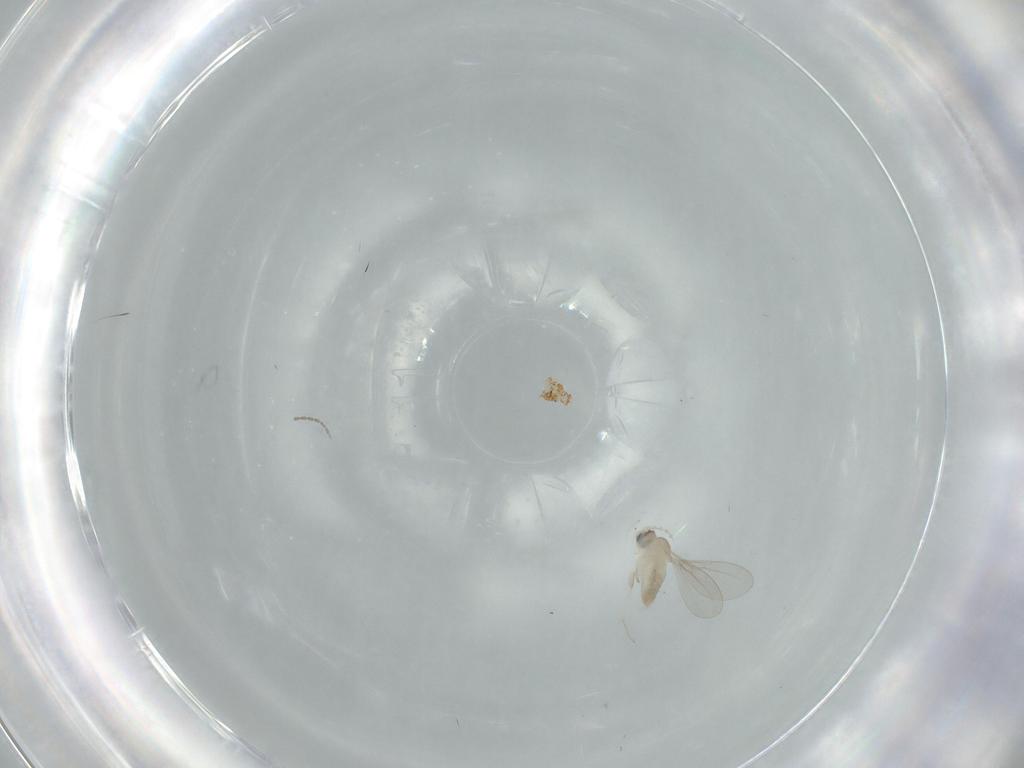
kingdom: Animalia
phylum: Arthropoda
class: Insecta
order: Diptera
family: Cecidomyiidae
